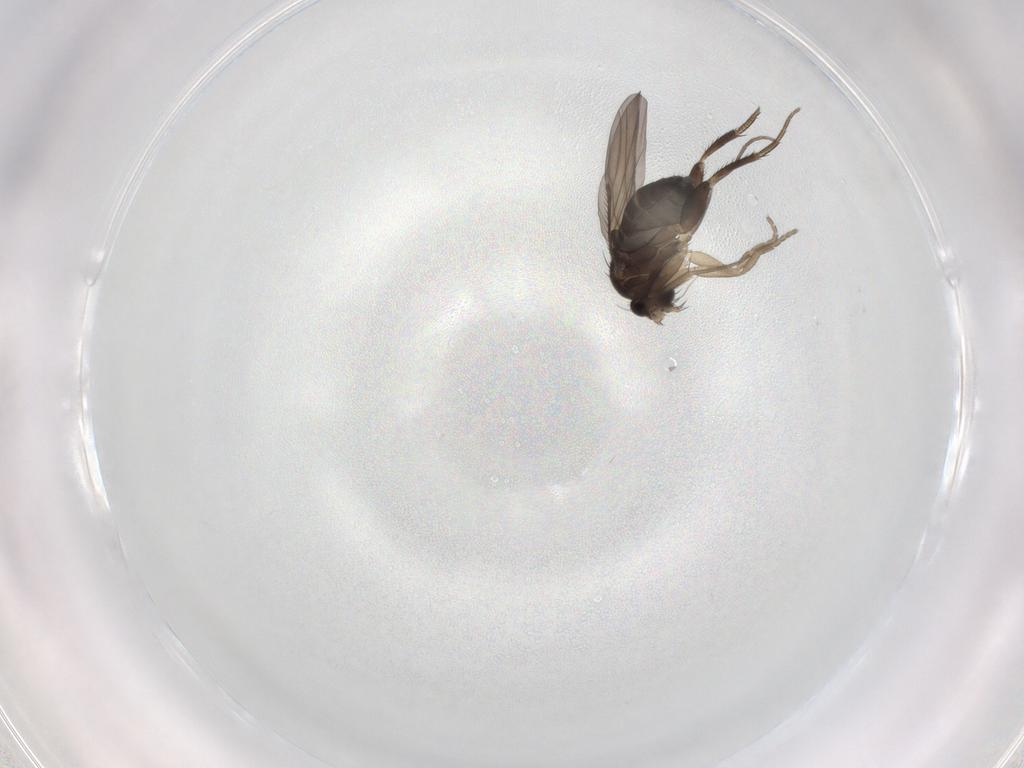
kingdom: Animalia
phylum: Arthropoda
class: Insecta
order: Diptera
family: Phoridae
